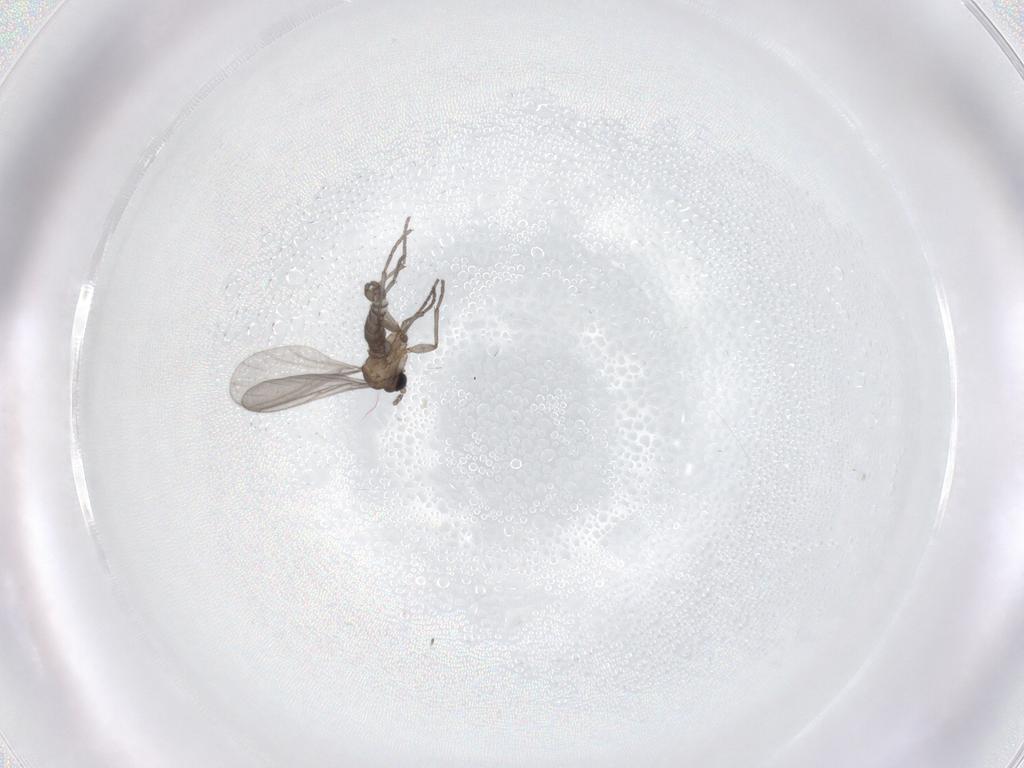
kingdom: Animalia
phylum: Arthropoda
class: Insecta
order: Diptera
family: Sciaridae
